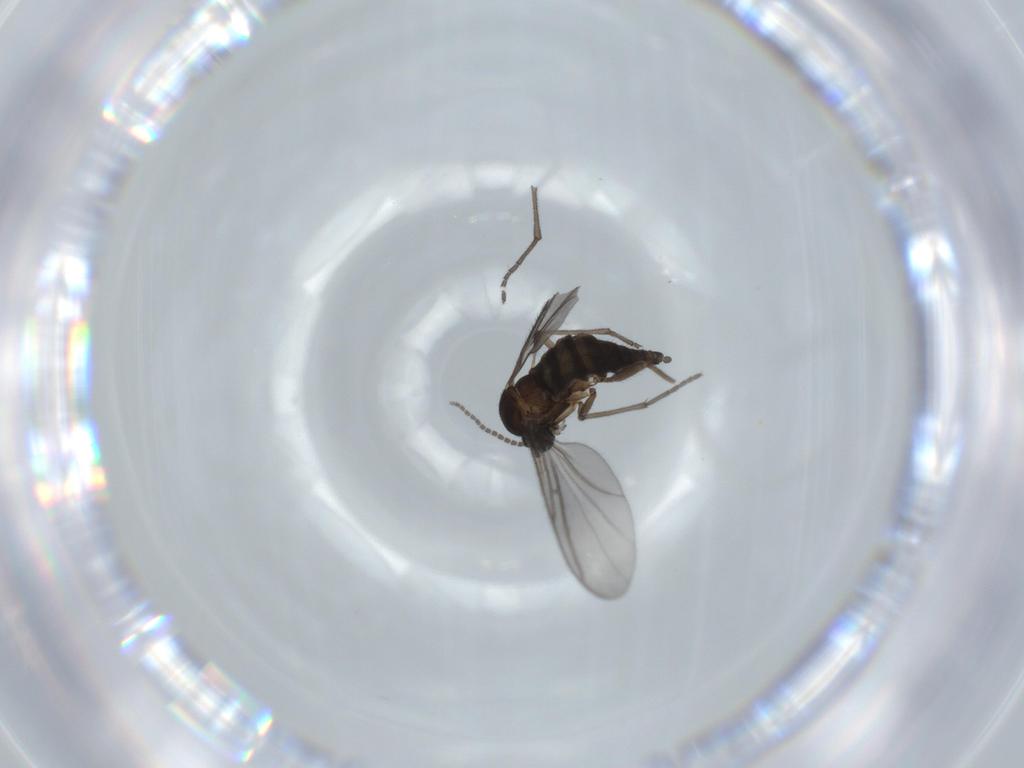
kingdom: Animalia
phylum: Arthropoda
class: Insecta
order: Diptera
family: Sciaridae
